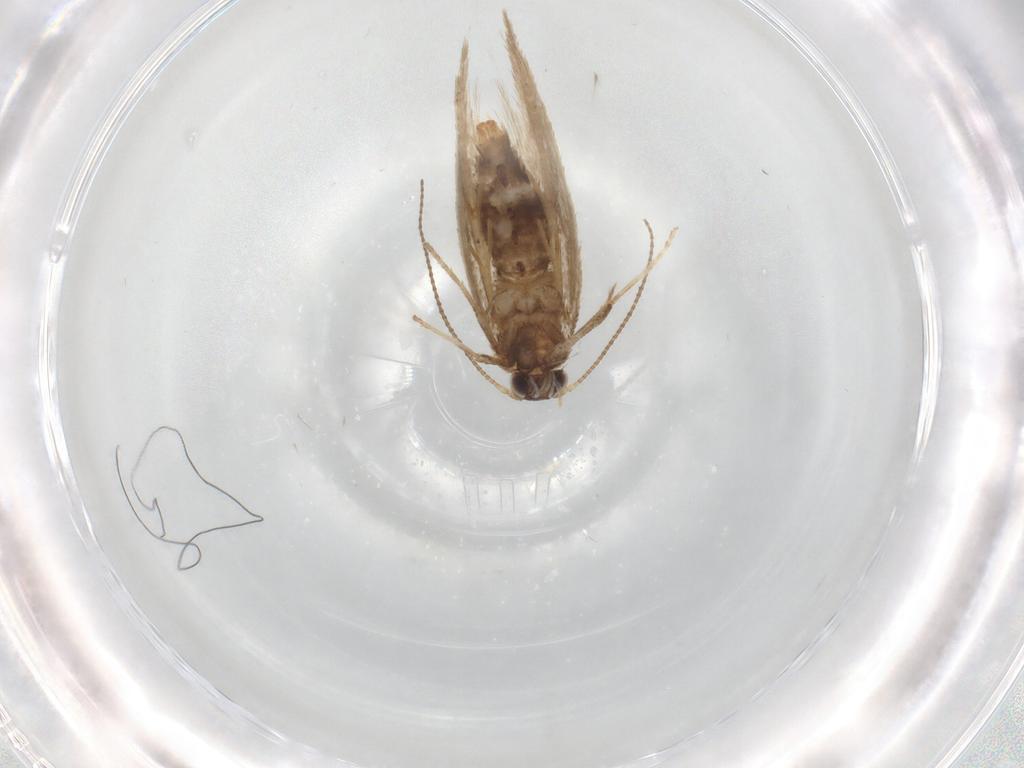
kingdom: Animalia
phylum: Arthropoda
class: Insecta
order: Lepidoptera
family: Nepticulidae
